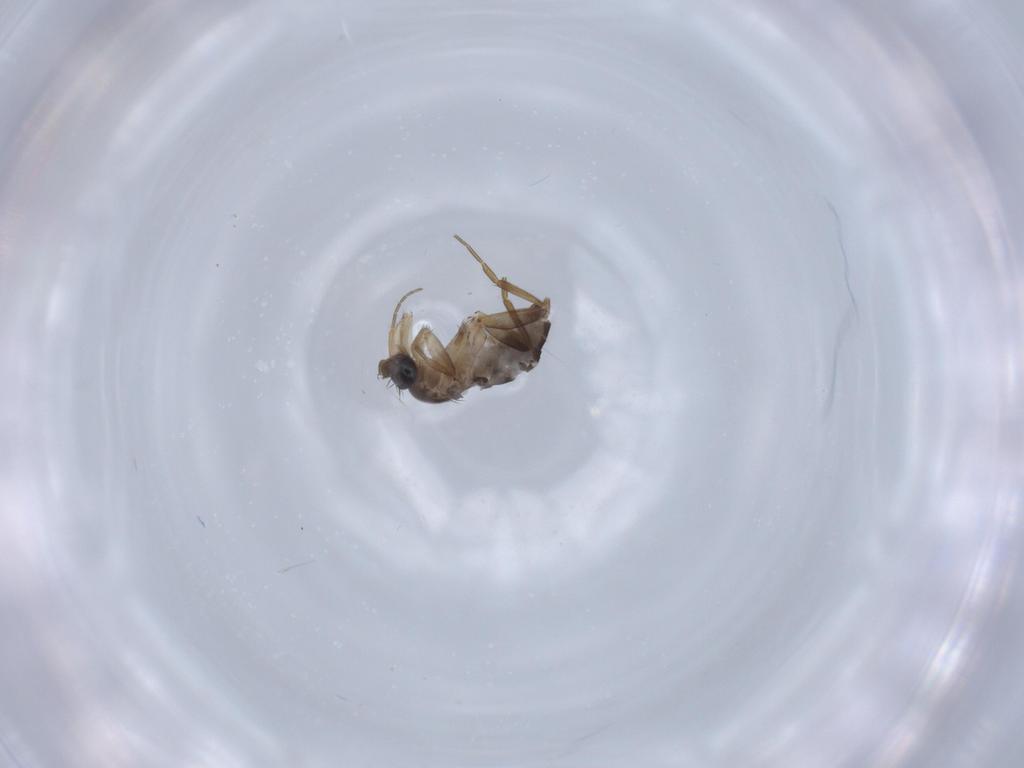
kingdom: Animalia
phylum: Arthropoda
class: Insecta
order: Diptera
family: Phoridae
